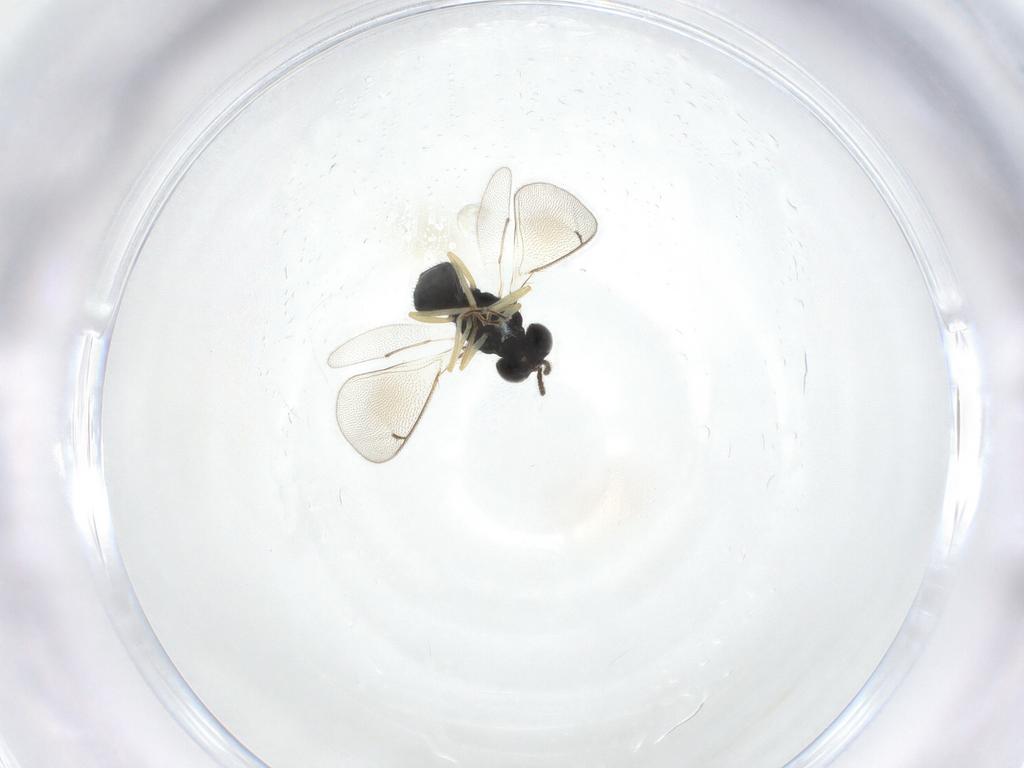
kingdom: Animalia
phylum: Arthropoda
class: Insecta
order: Hymenoptera
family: Eulophidae
